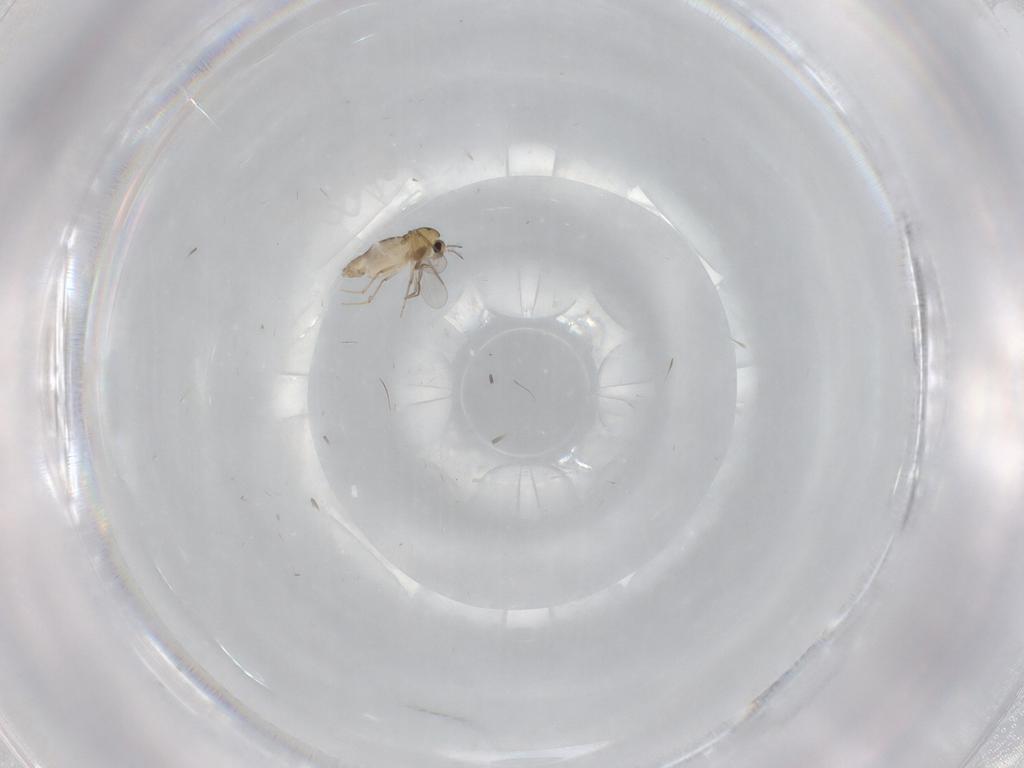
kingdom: Animalia
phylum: Arthropoda
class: Insecta
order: Diptera
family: Chironomidae
